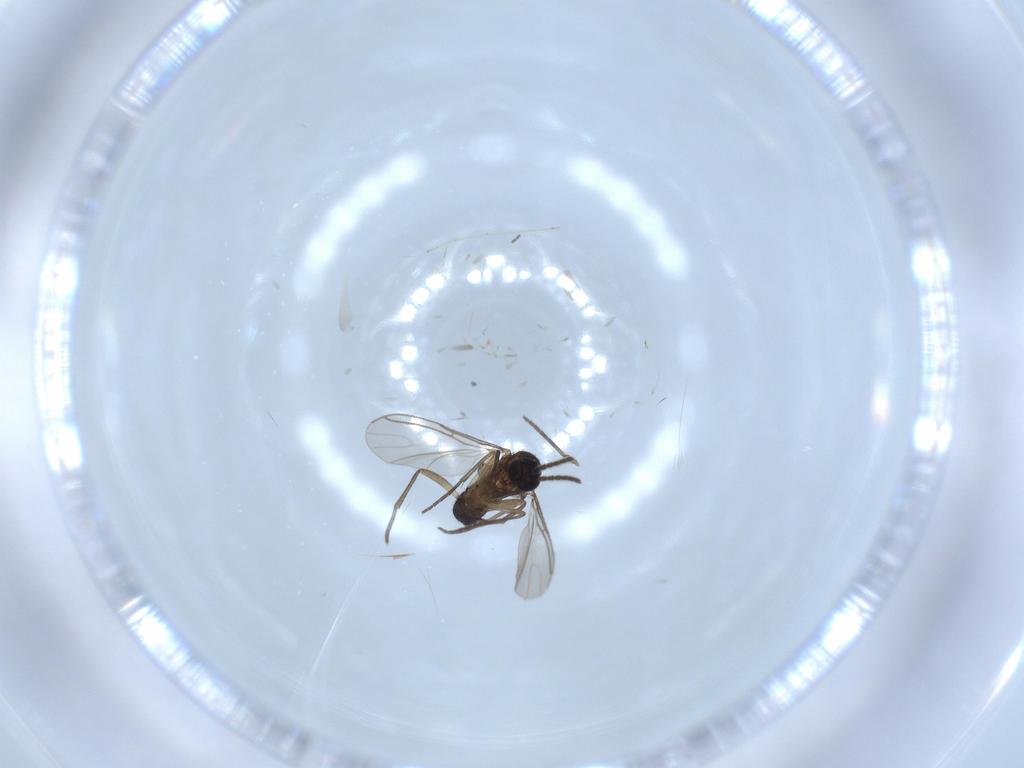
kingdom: Animalia
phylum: Arthropoda
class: Insecta
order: Diptera
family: Sciaridae
